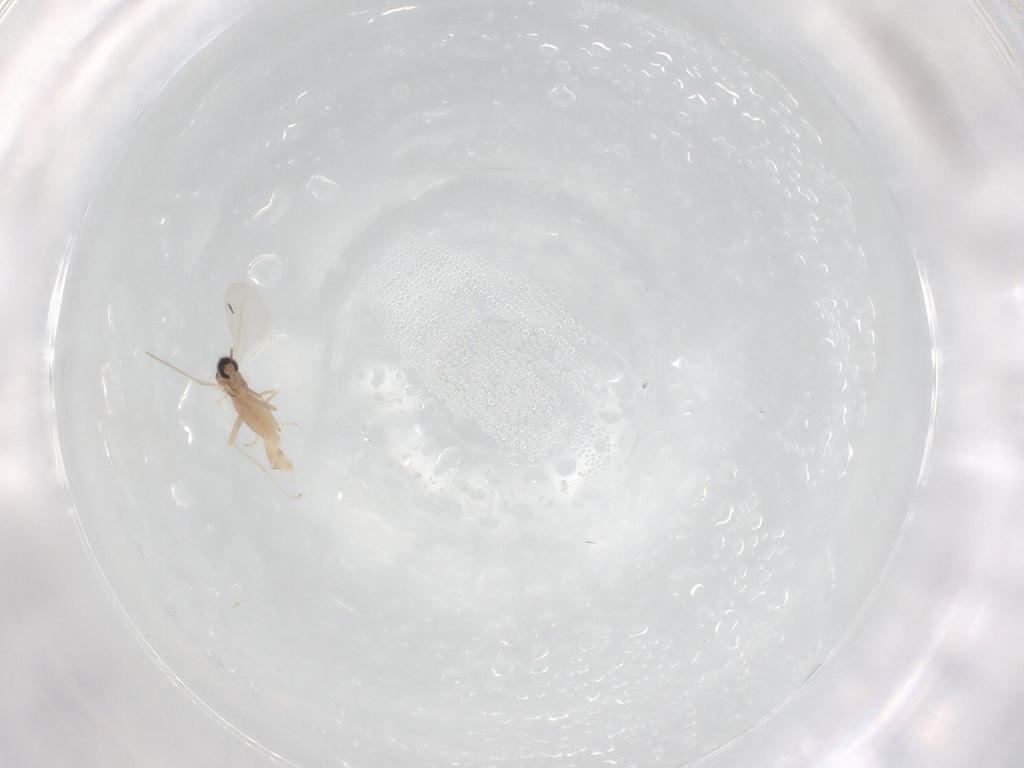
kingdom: Animalia
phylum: Arthropoda
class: Insecta
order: Diptera
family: Cecidomyiidae
